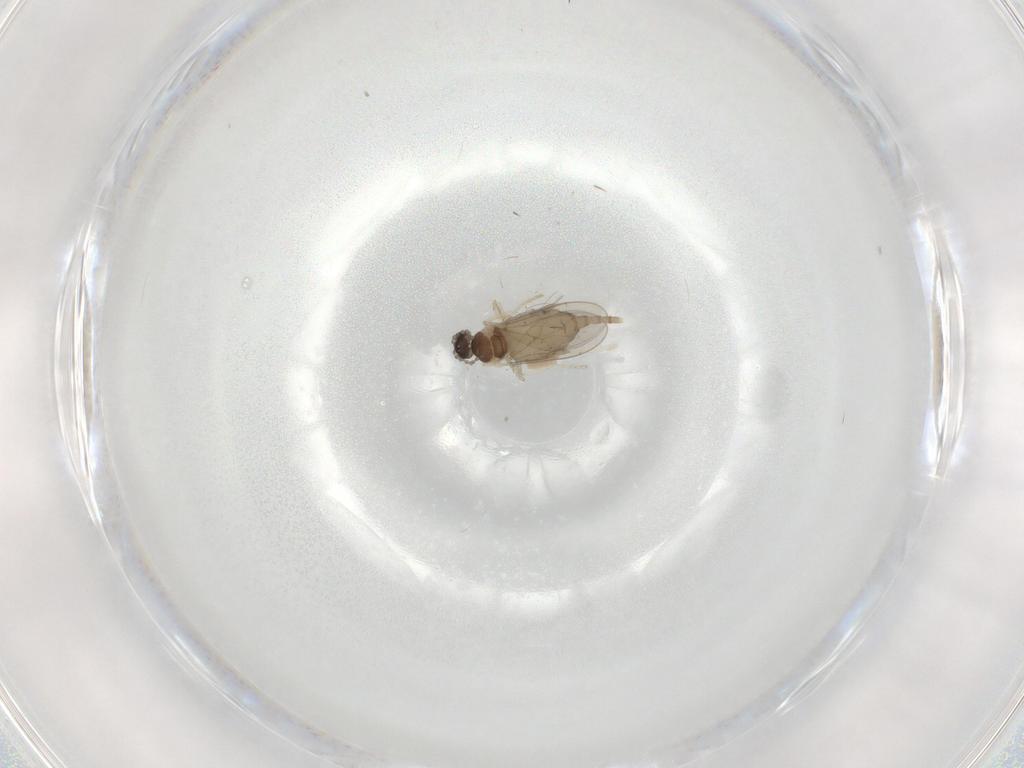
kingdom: Animalia
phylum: Arthropoda
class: Insecta
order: Diptera
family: Cecidomyiidae
